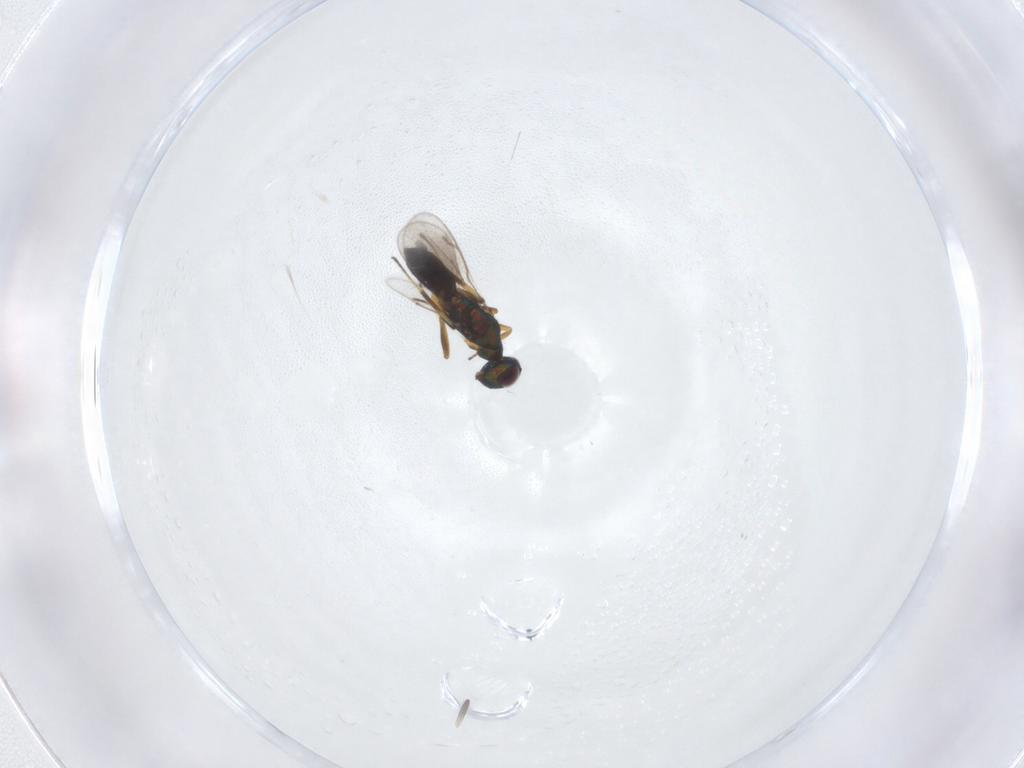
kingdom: Animalia
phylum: Arthropoda
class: Insecta
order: Hymenoptera
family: Eupelmidae
